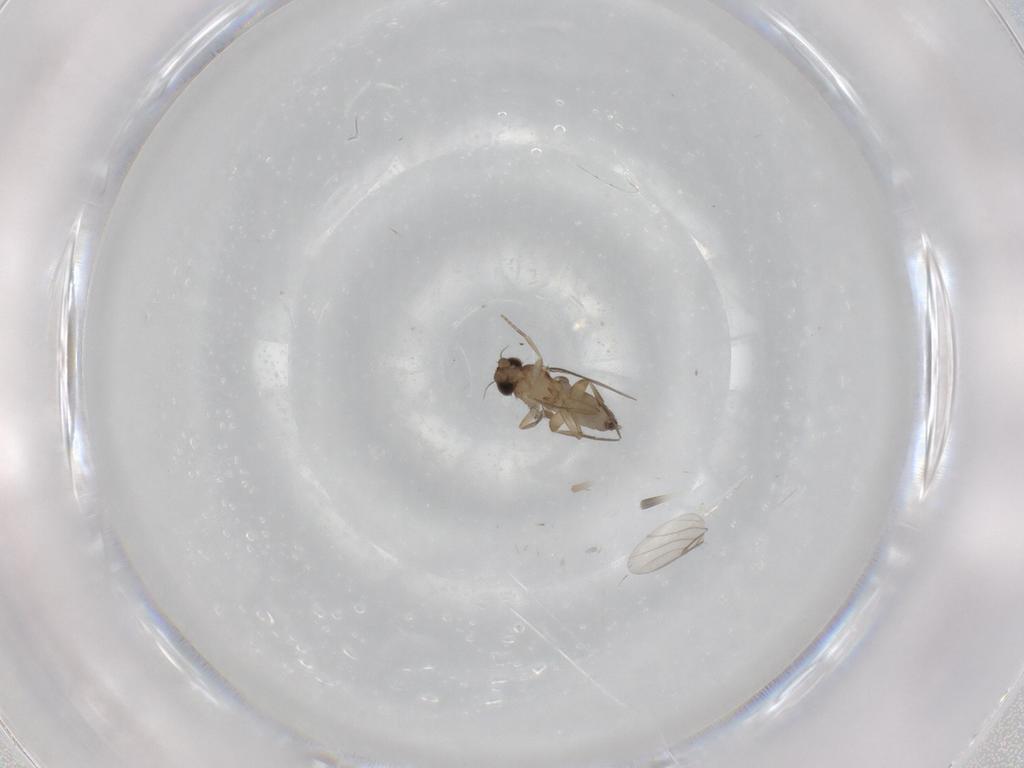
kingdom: Animalia
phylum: Arthropoda
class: Insecta
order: Diptera
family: Phoridae
